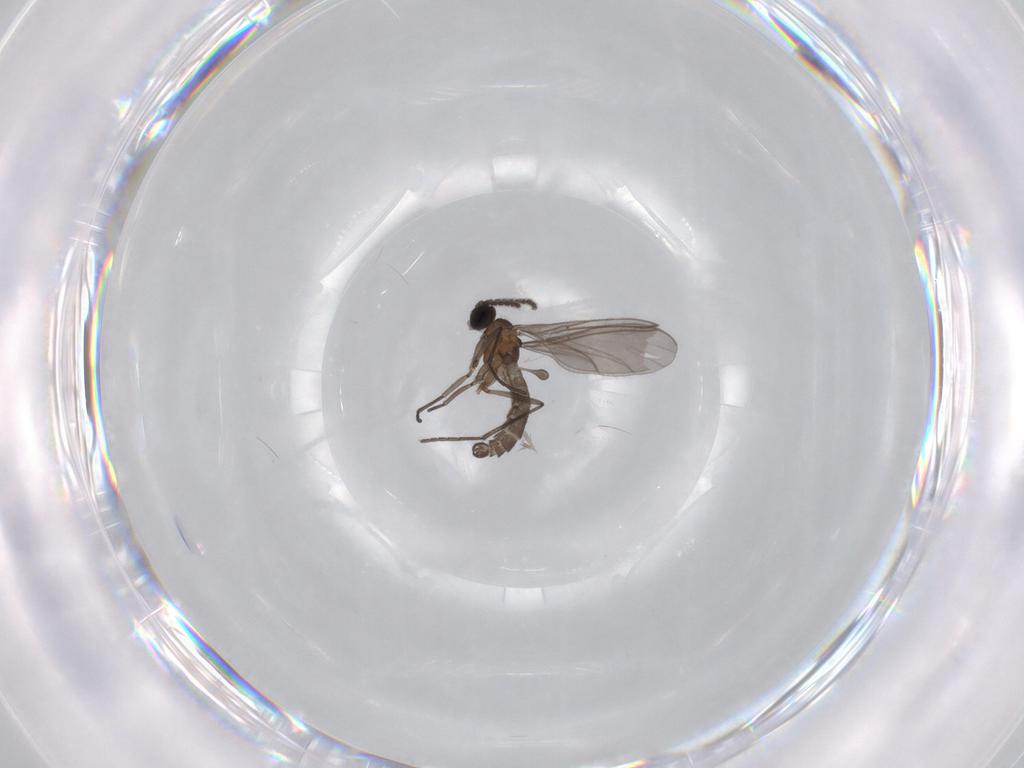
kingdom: Animalia
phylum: Arthropoda
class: Insecta
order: Diptera
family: Sciaridae
